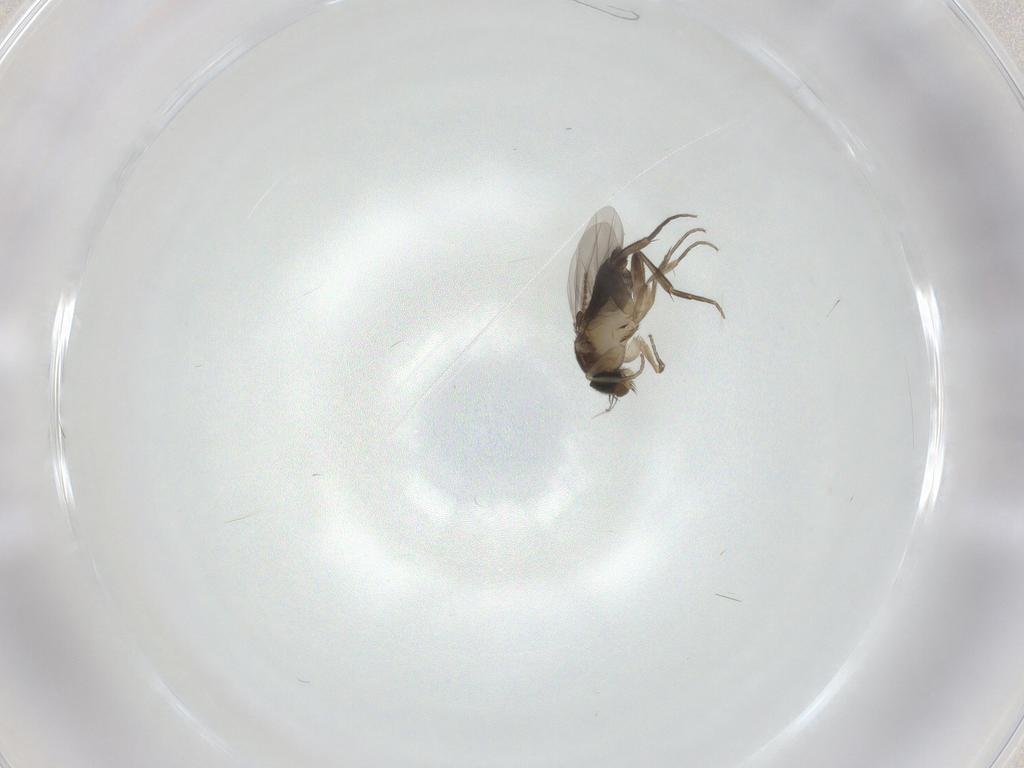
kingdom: Animalia
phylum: Arthropoda
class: Insecta
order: Diptera
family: Phoridae
